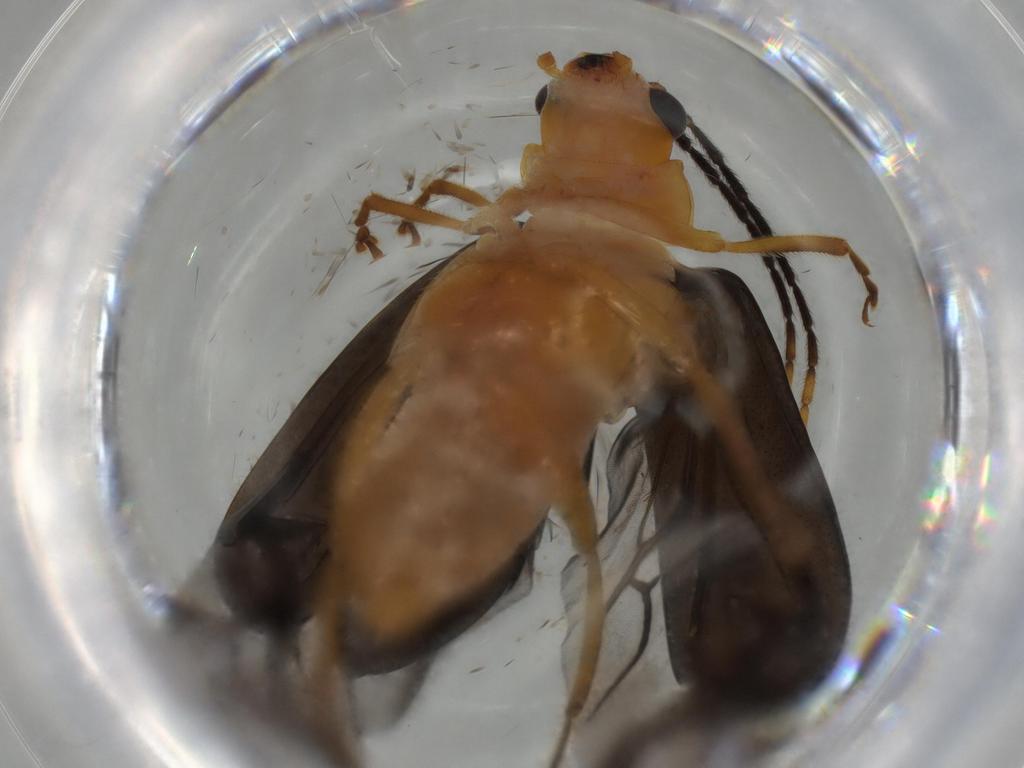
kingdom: Animalia
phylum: Arthropoda
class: Insecta
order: Coleoptera
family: Chrysomelidae
